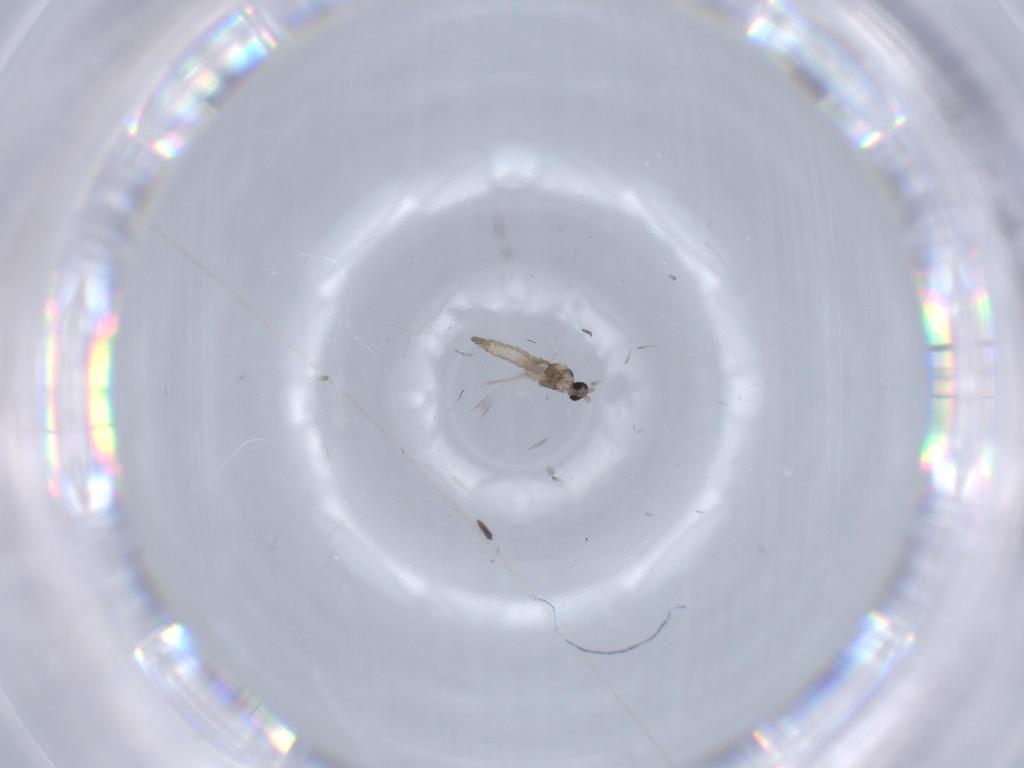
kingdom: Animalia
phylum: Arthropoda
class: Insecta
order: Diptera
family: Cecidomyiidae
